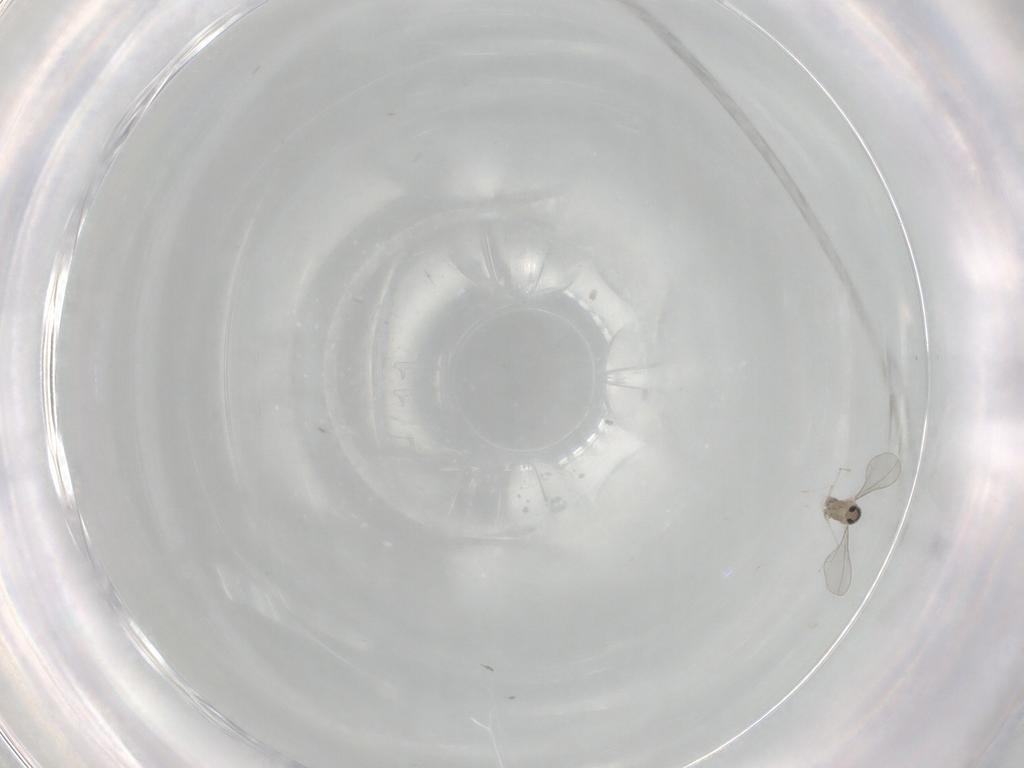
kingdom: Animalia
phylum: Arthropoda
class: Insecta
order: Diptera
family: Cecidomyiidae
